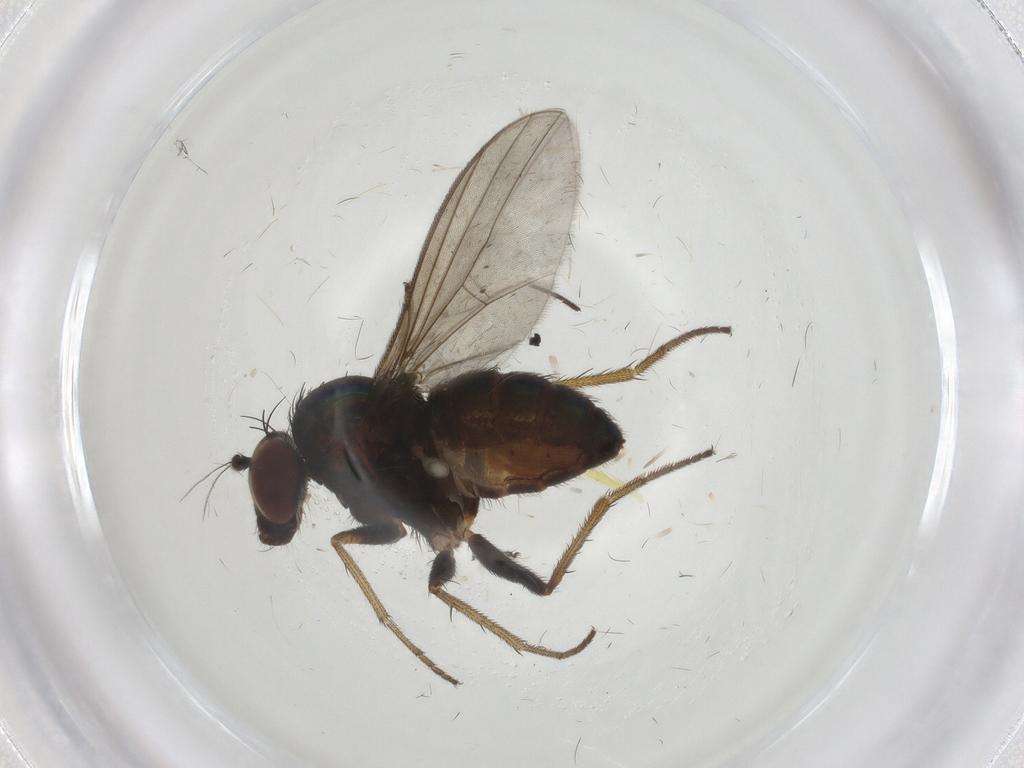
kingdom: Animalia
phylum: Arthropoda
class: Insecta
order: Diptera
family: Limoniidae
